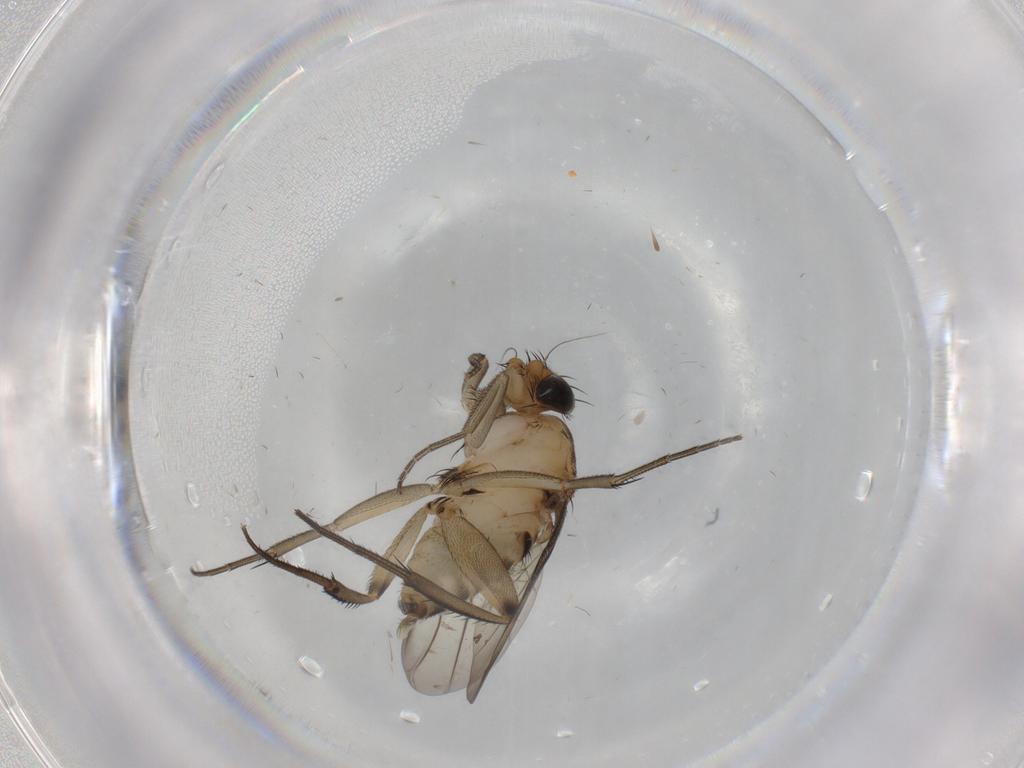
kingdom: Animalia
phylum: Arthropoda
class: Insecta
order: Diptera
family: Phoridae
